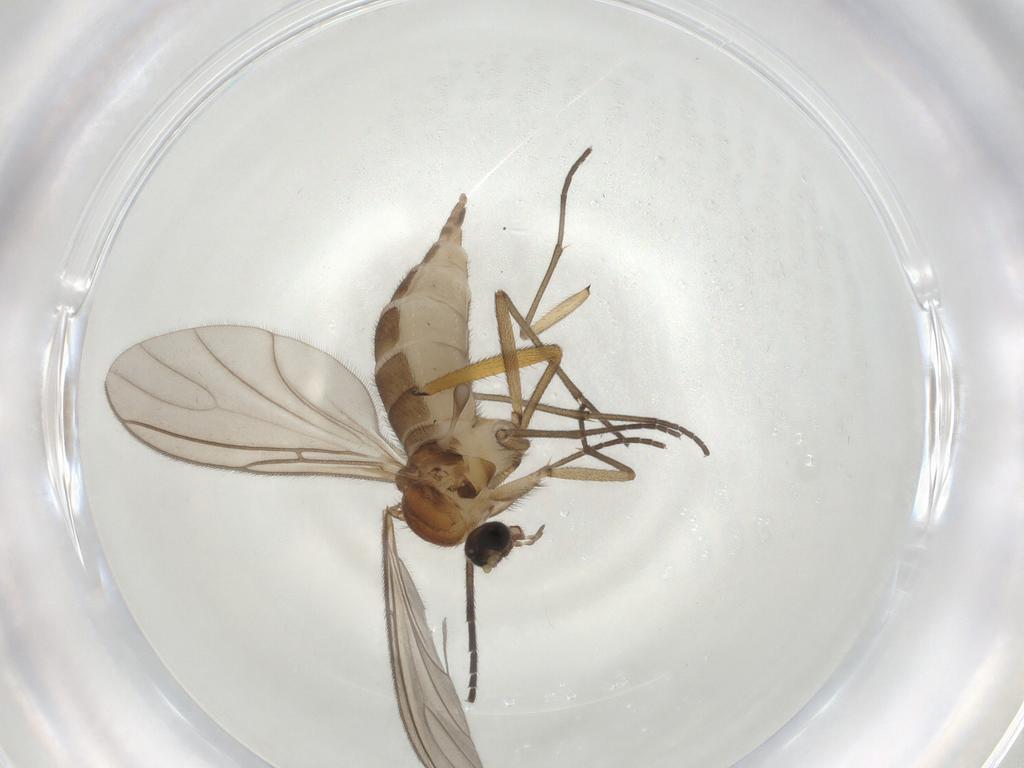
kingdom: Animalia
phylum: Arthropoda
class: Insecta
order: Diptera
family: Sciaridae
